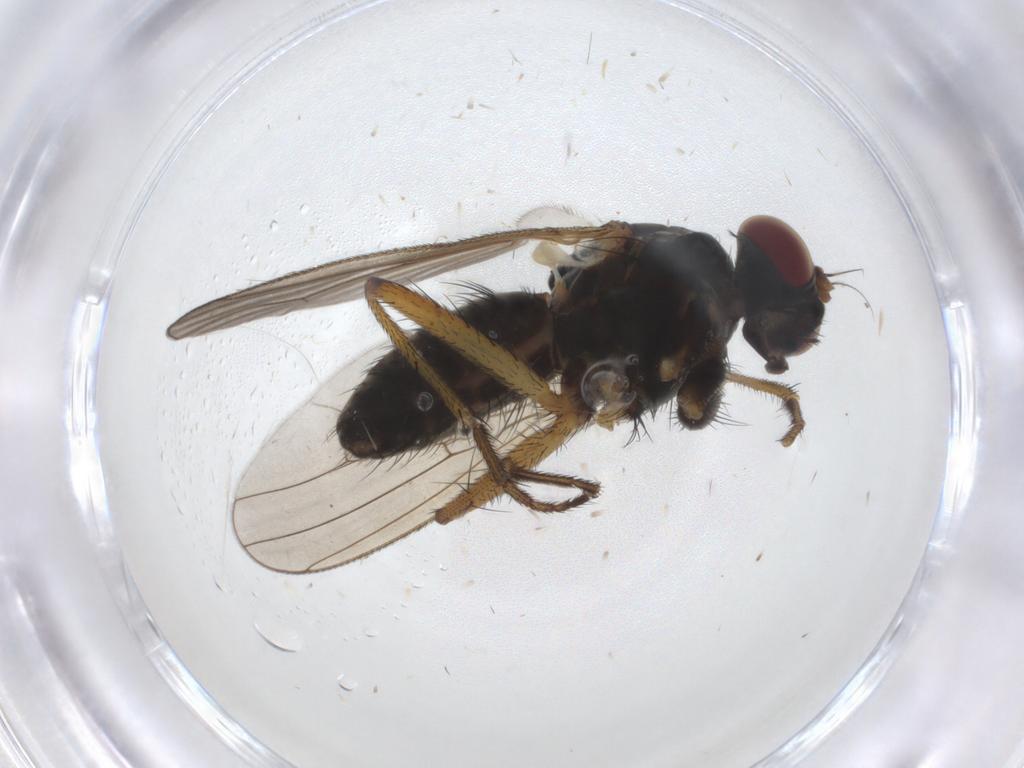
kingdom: Animalia
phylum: Arthropoda
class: Insecta
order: Diptera
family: Muscidae
